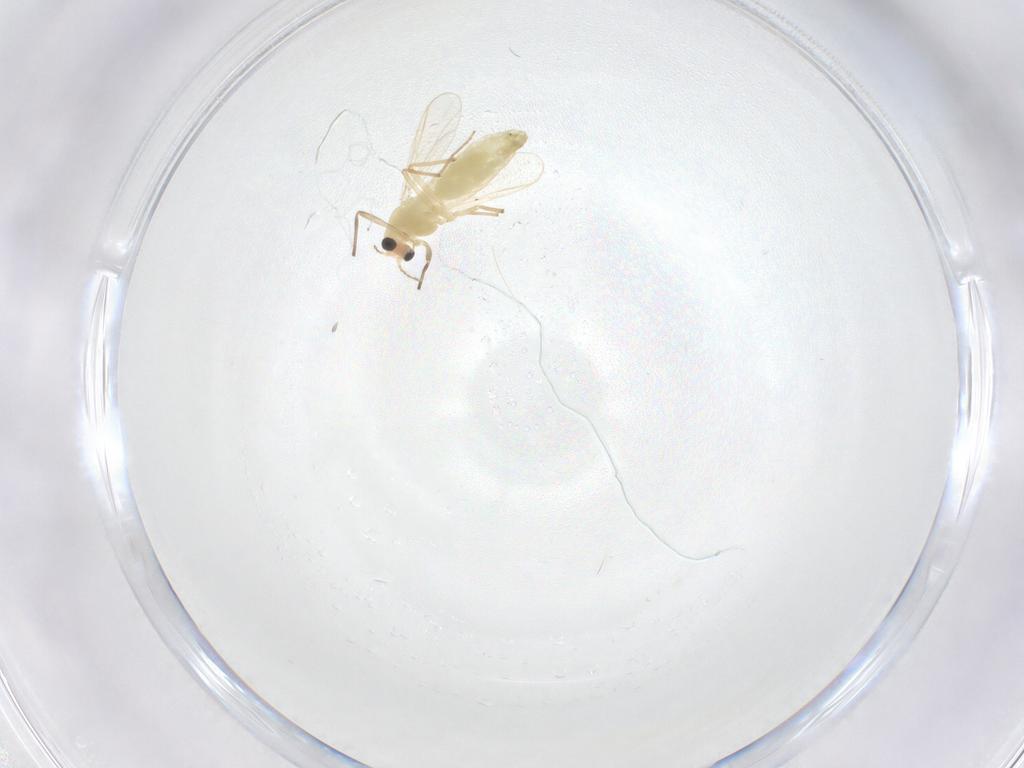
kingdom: Animalia
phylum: Arthropoda
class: Insecta
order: Diptera
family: Chironomidae
